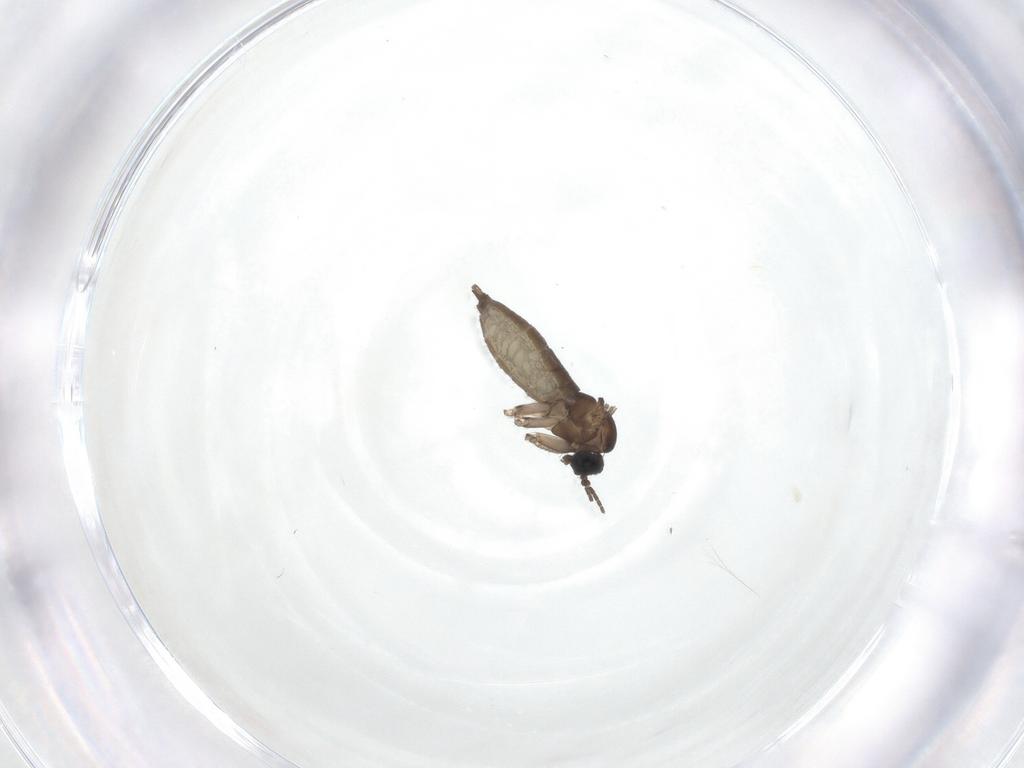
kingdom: Animalia
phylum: Arthropoda
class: Insecta
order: Diptera
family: Sciaridae
